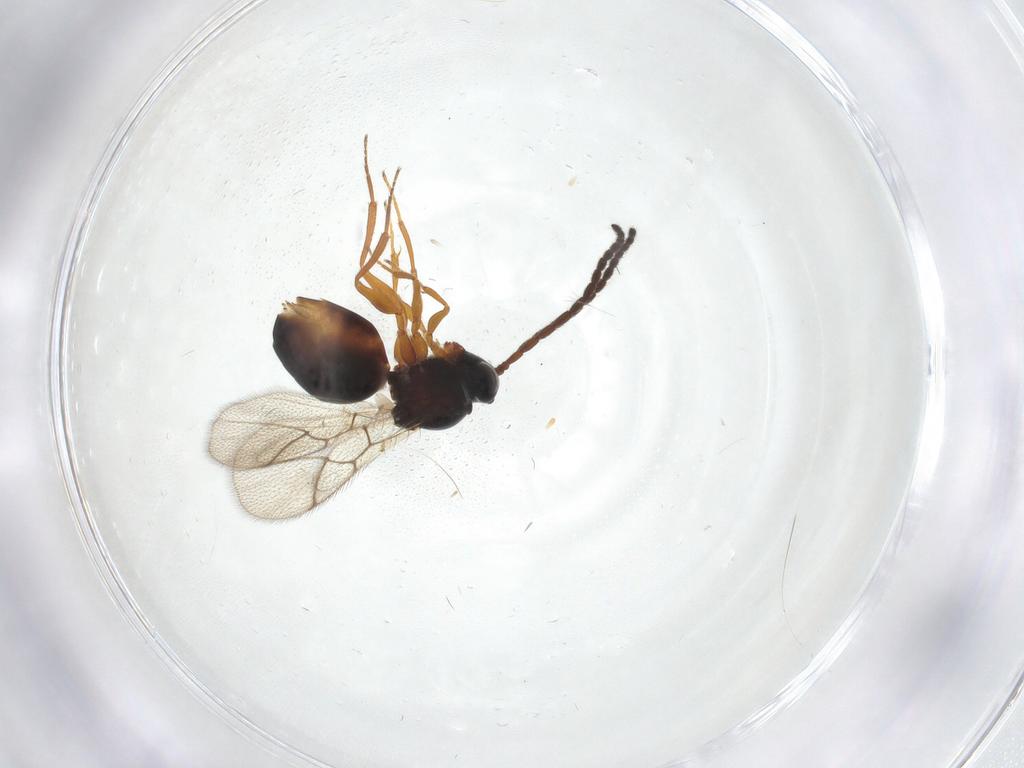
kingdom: Animalia
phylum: Arthropoda
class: Insecta
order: Hymenoptera
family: Figitidae
